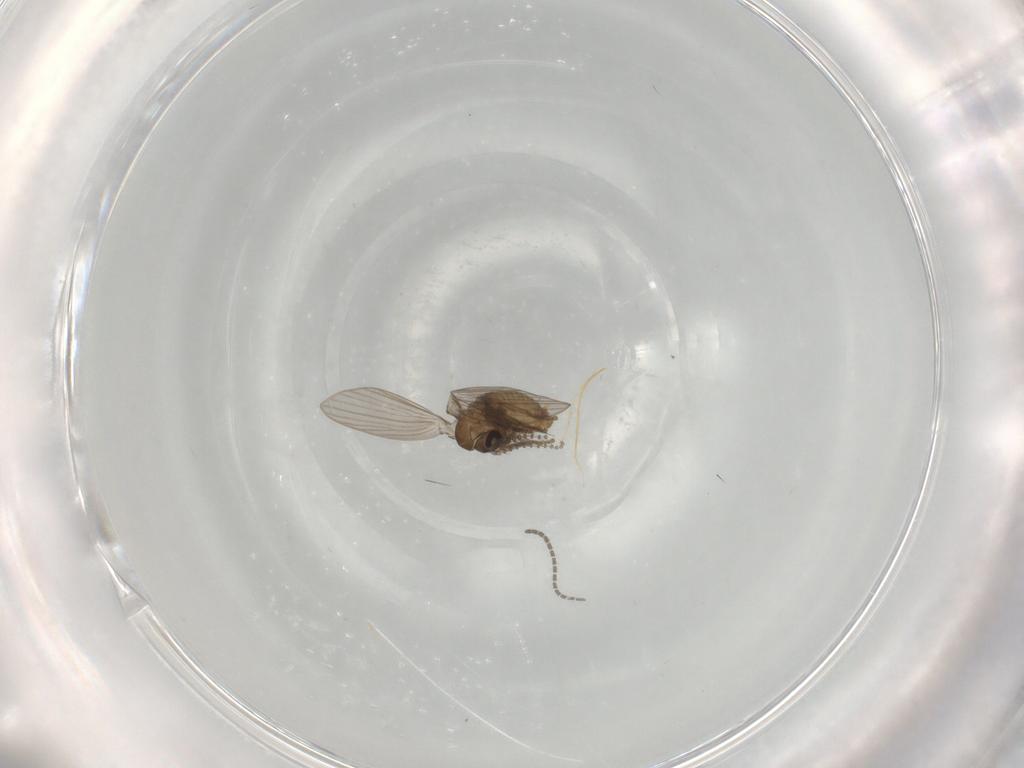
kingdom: Animalia
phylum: Arthropoda
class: Insecta
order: Diptera
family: Psychodidae
